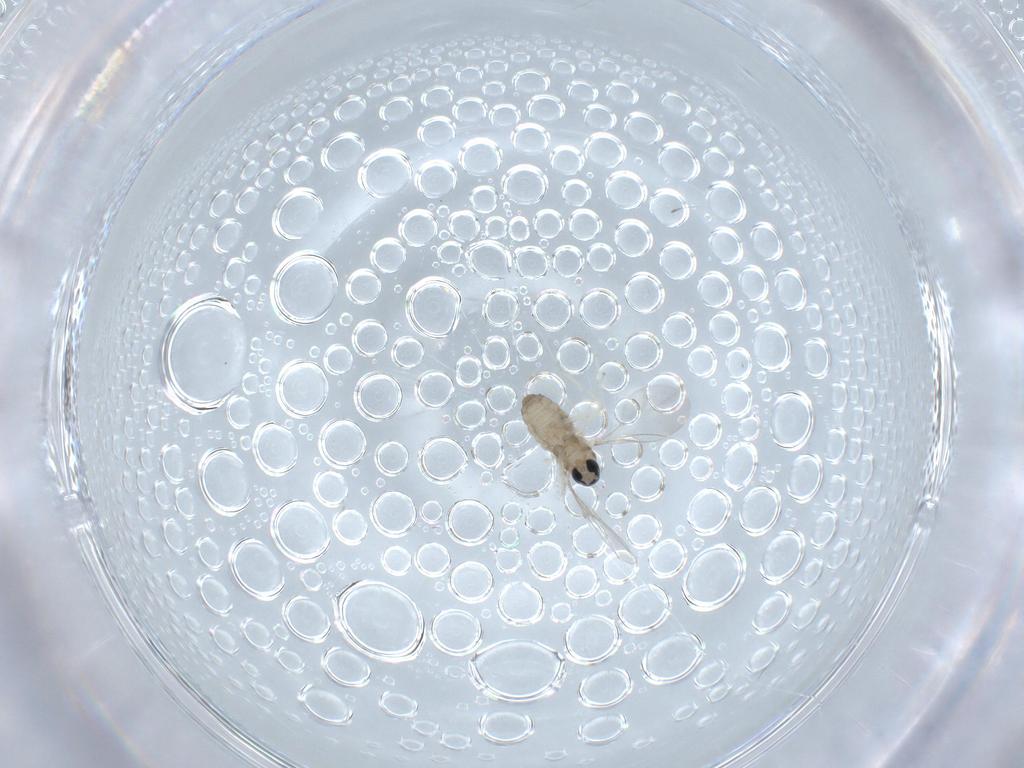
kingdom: Animalia
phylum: Arthropoda
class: Insecta
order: Diptera
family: Cecidomyiidae
